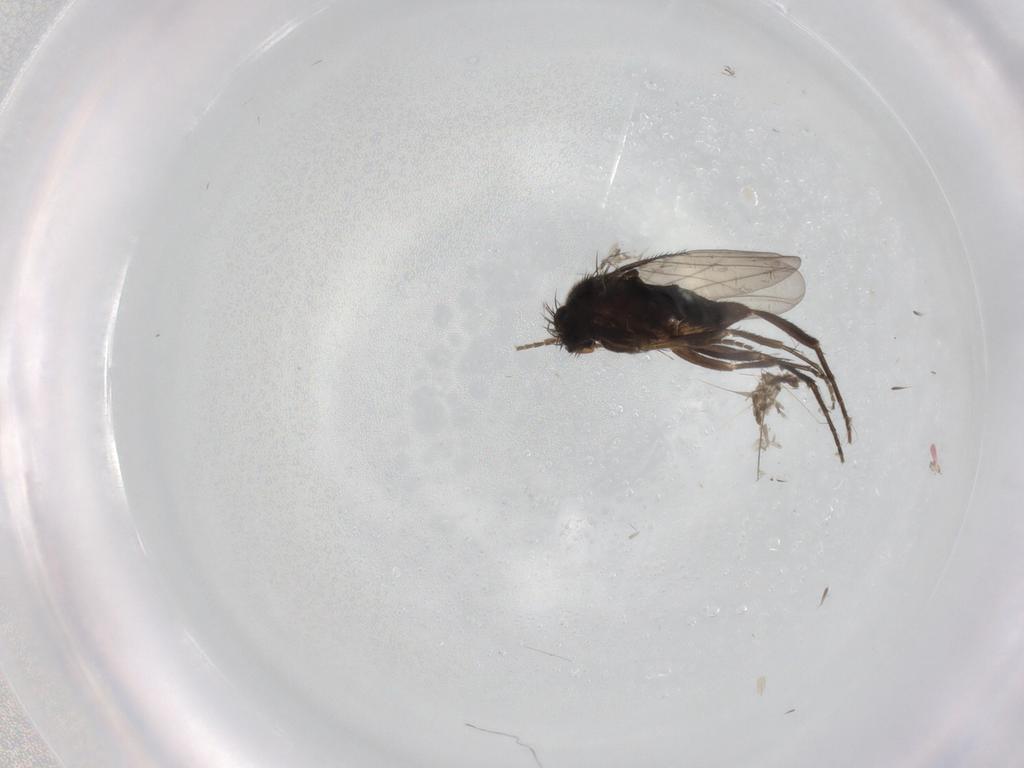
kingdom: Animalia
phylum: Arthropoda
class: Insecta
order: Diptera
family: Phoridae
